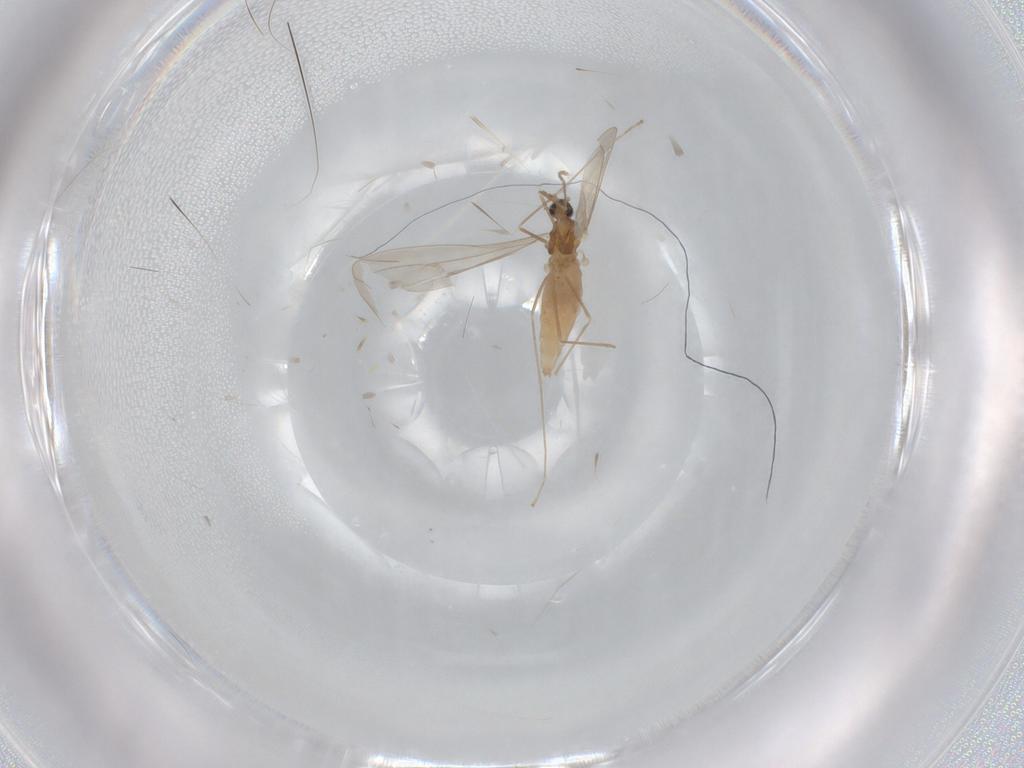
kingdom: Animalia
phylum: Arthropoda
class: Insecta
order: Diptera
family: Cecidomyiidae
